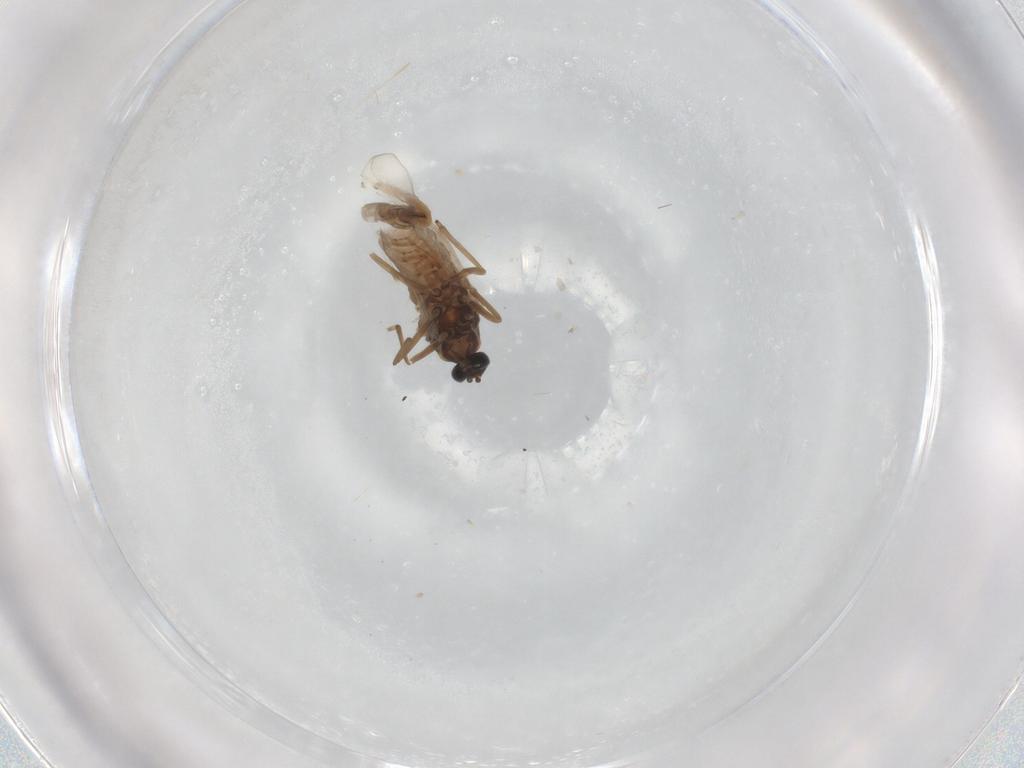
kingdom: Animalia
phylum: Arthropoda
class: Insecta
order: Diptera
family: Cecidomyiidae
